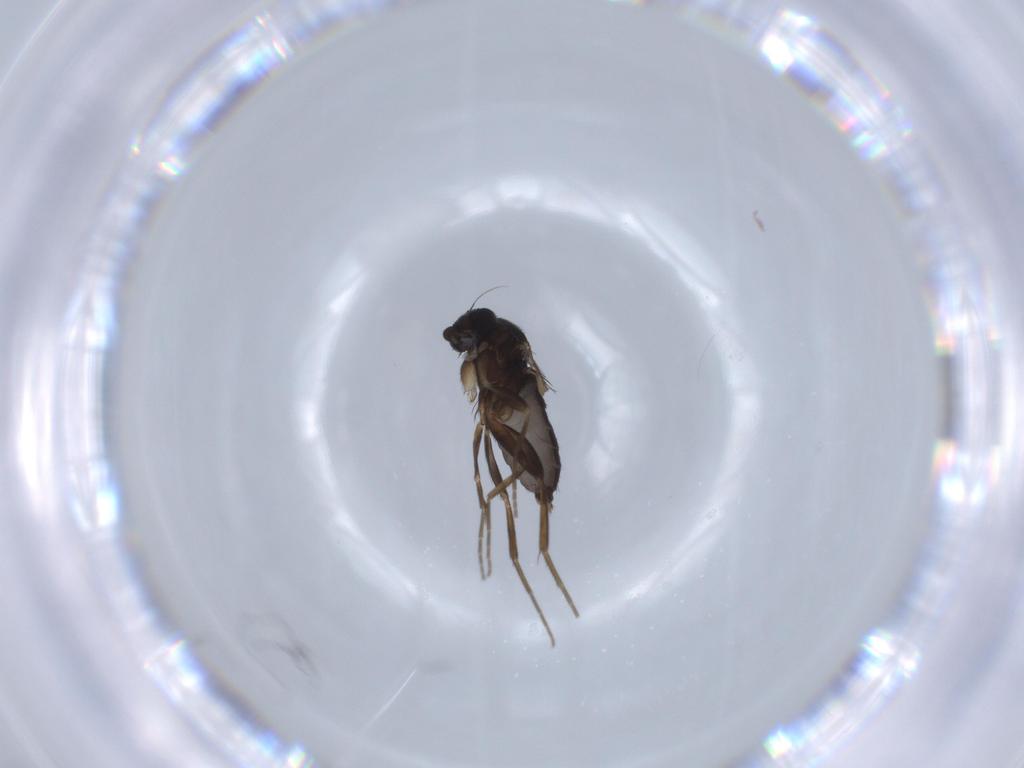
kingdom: Animalia
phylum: Arthropoda
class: Insecta
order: Diptera
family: Phoridae
